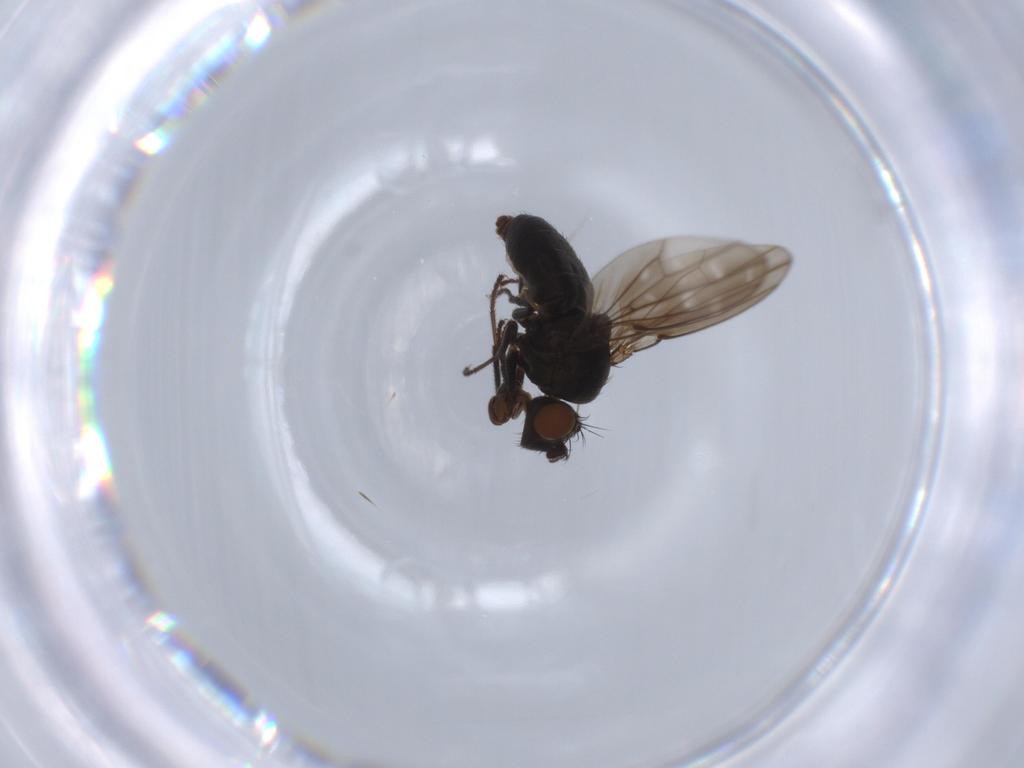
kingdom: Animalia
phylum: Arthropoda
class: Insecta
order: Diptera
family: Ephydridae
